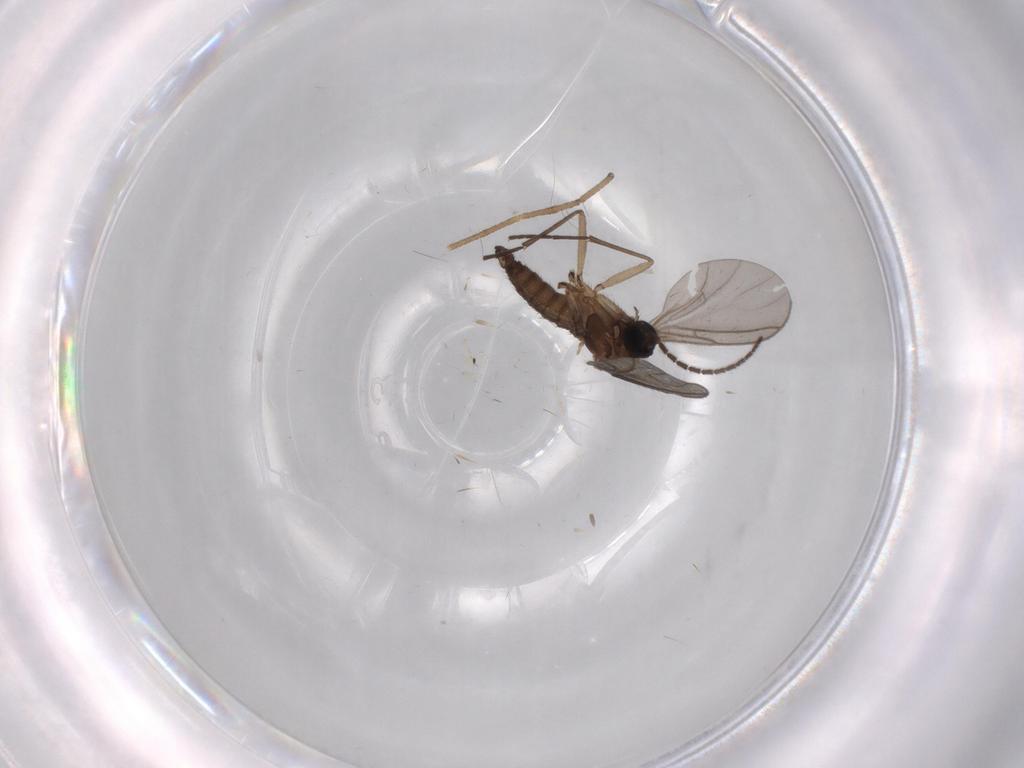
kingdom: Animalia
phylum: Arthropoda
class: Insecta
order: Diptera
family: Limoniidae
